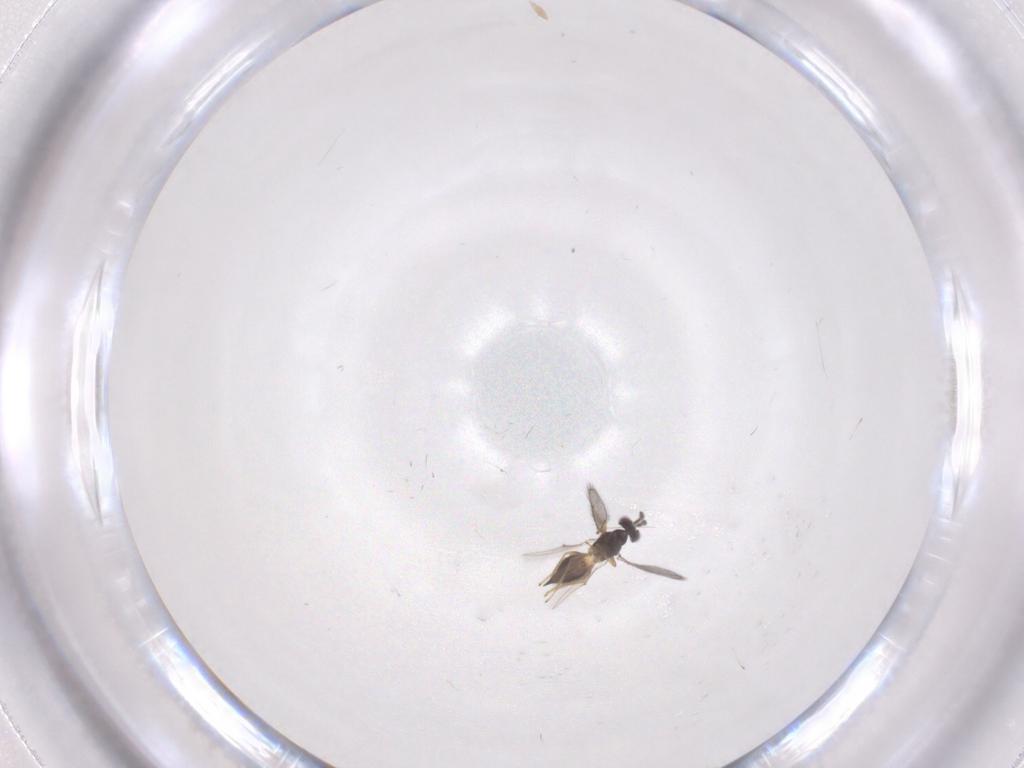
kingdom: Animalia
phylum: Arthropoda
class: Insecta
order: Hymenoptera
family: Eulophidae
